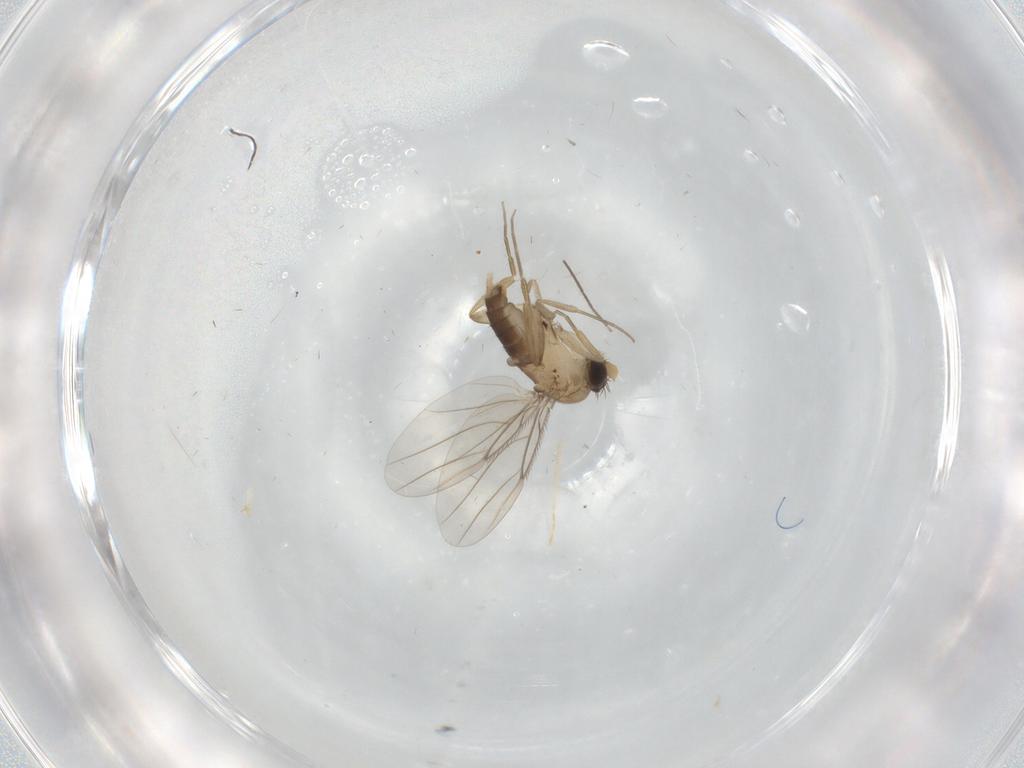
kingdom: Animalia
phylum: Arthropoda
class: Insecta
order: Diptera
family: Phoridae
